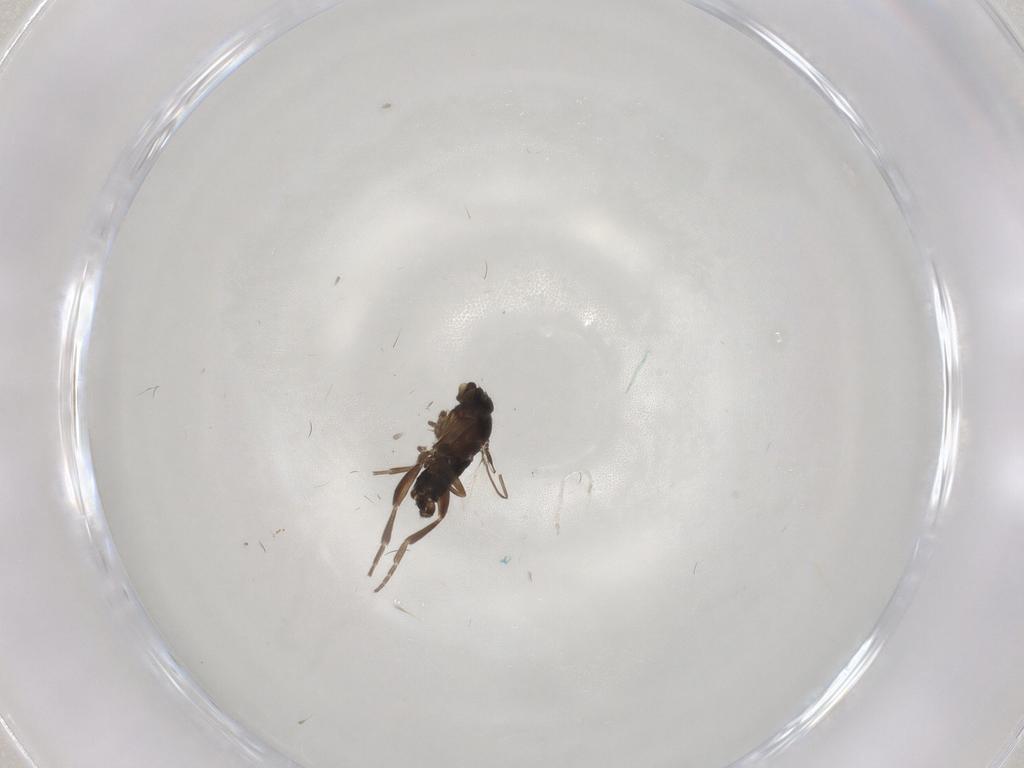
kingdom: Animalia
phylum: Arthropoda
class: Insecta
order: Diptera
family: Phoridae
